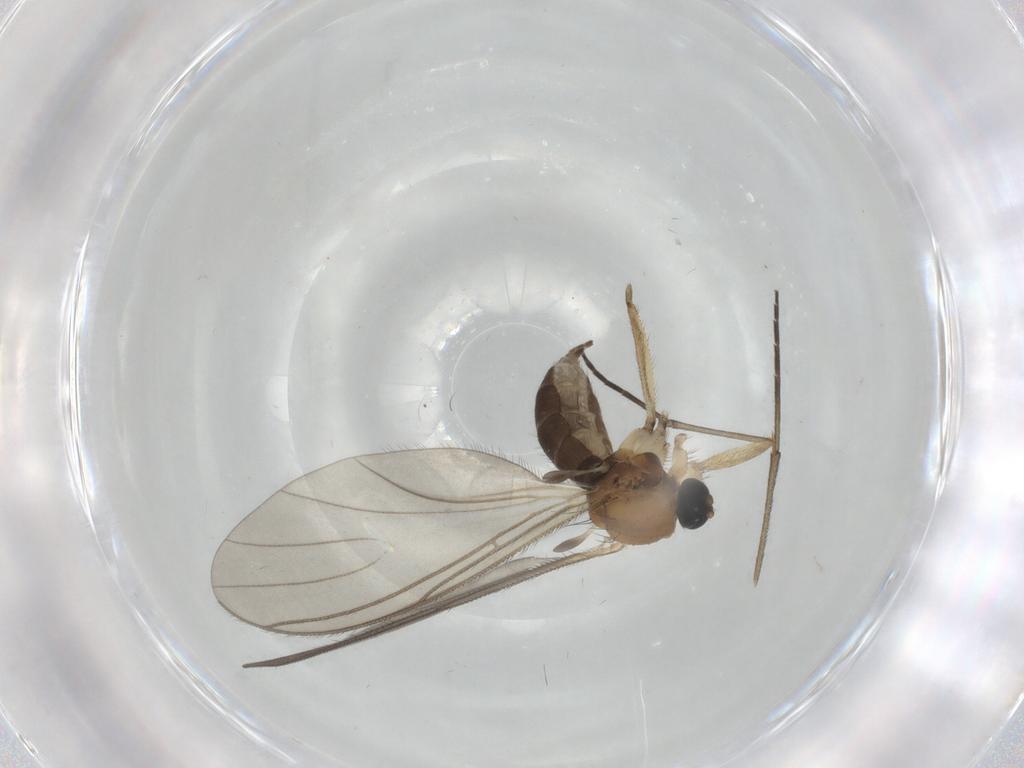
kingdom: Animalia
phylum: Arthropoda
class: Insecta
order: Diptera
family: Sciaridae
